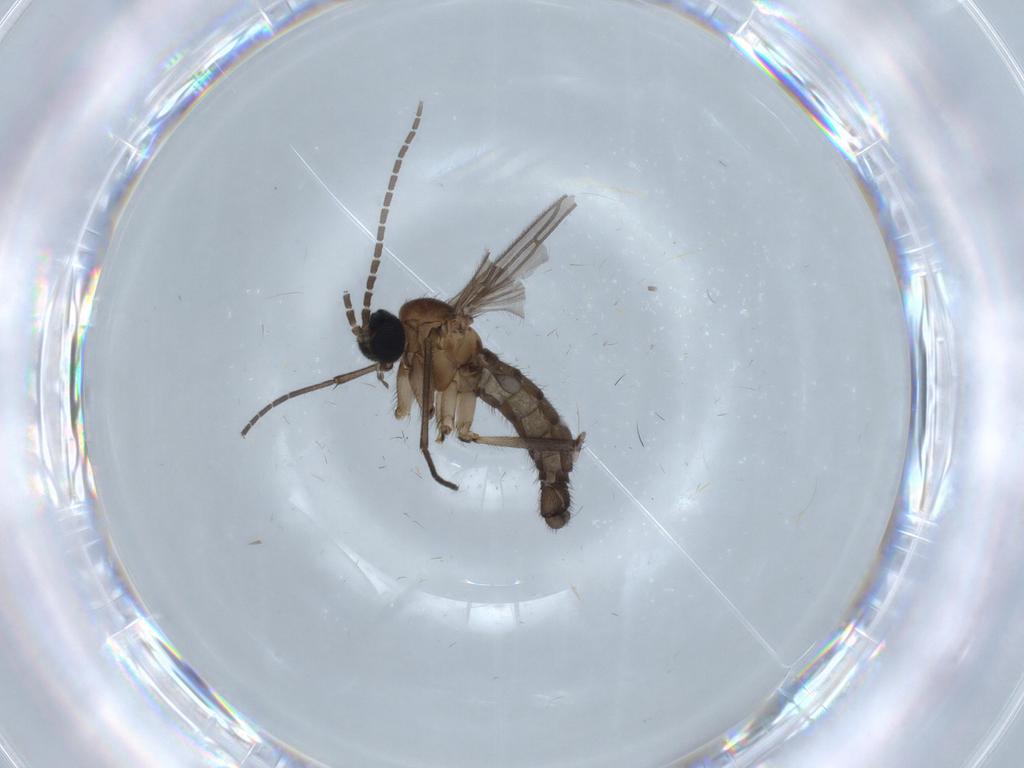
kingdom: Animalia
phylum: Arthropoda
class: Insecta
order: Diptera
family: Sciaridae
